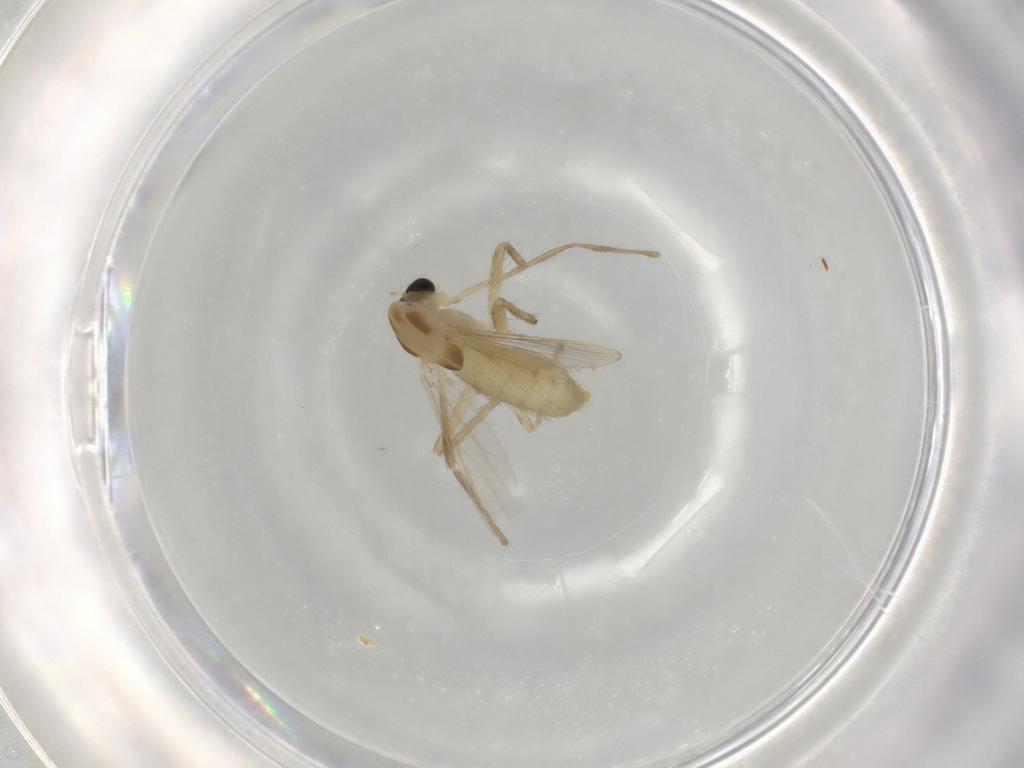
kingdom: Animalia
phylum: Arthropoda
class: Insecta
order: Diptera
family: Chironomidae
